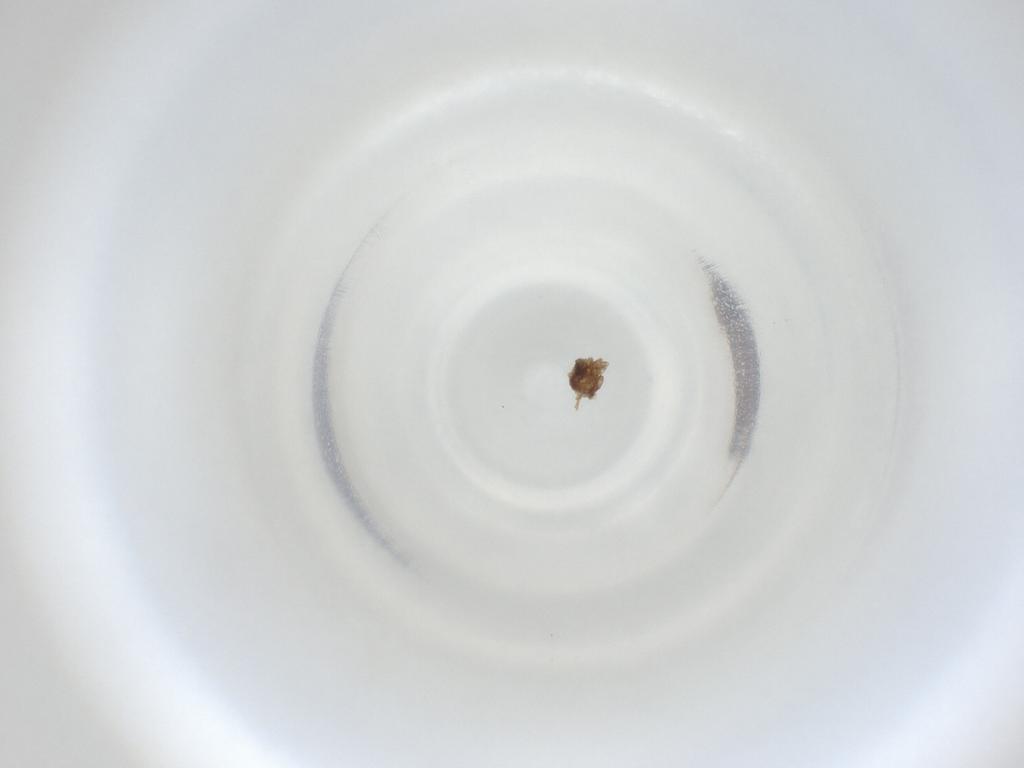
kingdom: Animalia
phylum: Arthropoda
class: Insecta
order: Diptera
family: Cecidomyiidae
